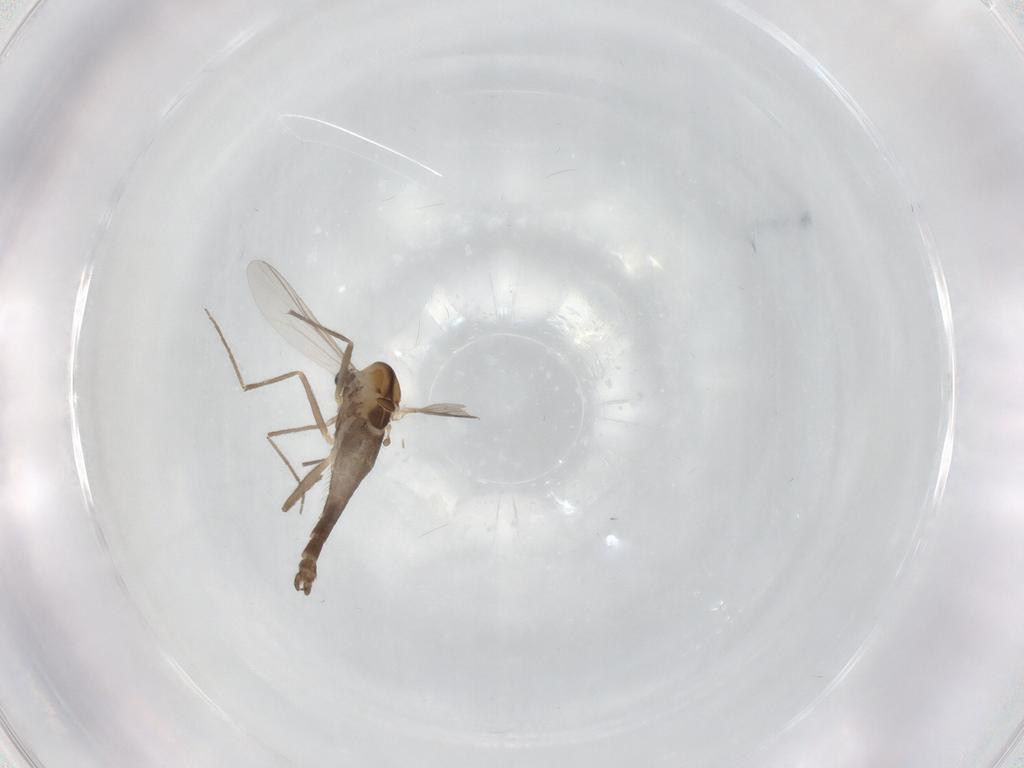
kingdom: Animalia
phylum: Arthropoda
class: Insecta
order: Diptera
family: Chironomidae
